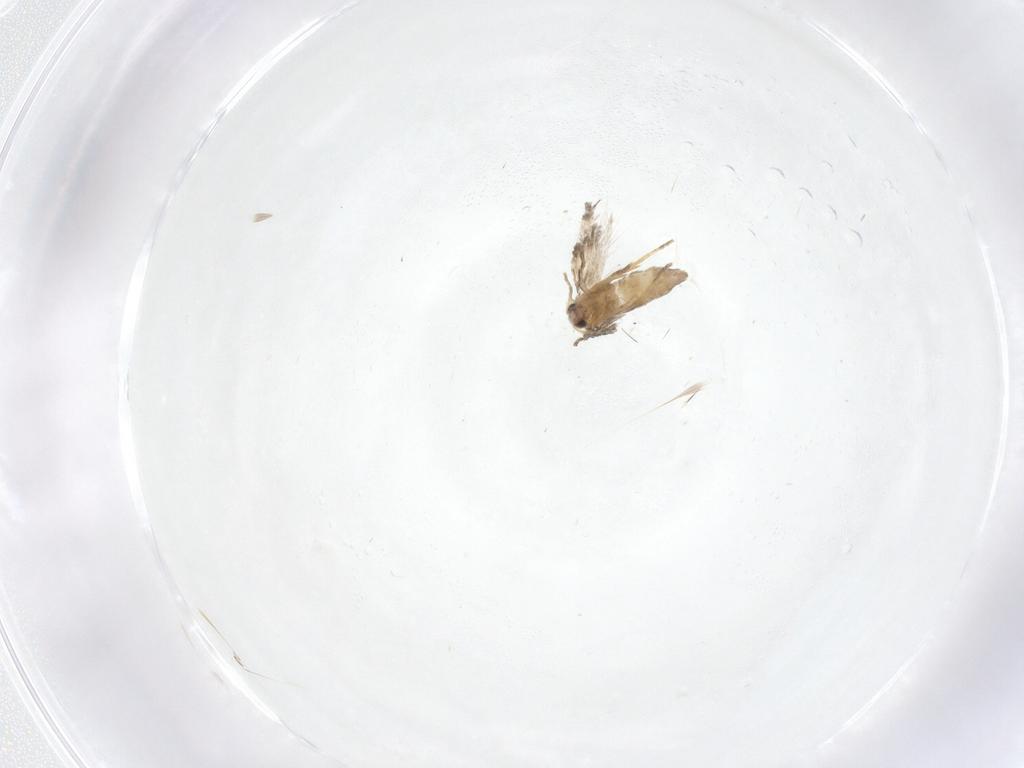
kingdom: Animalia
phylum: Arthropoda
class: Insecta
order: Lepidoptera
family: Nepticulidae
